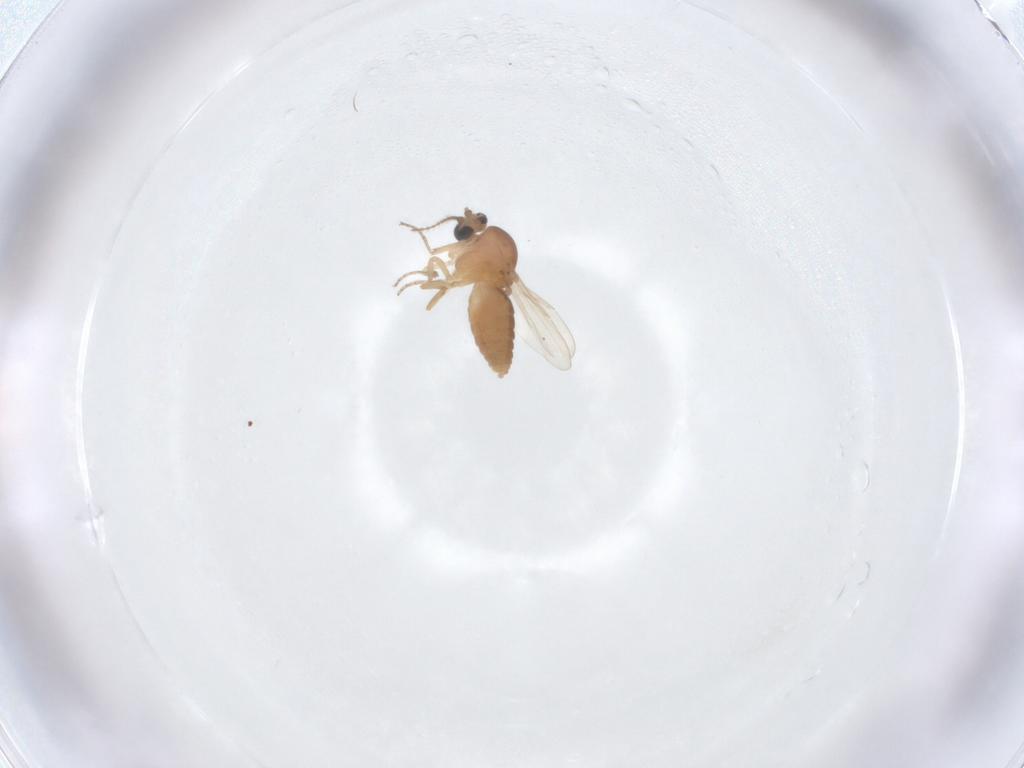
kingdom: Animalia
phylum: Arthropoda
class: Insecta
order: Diptera
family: Ceratopogonidae
